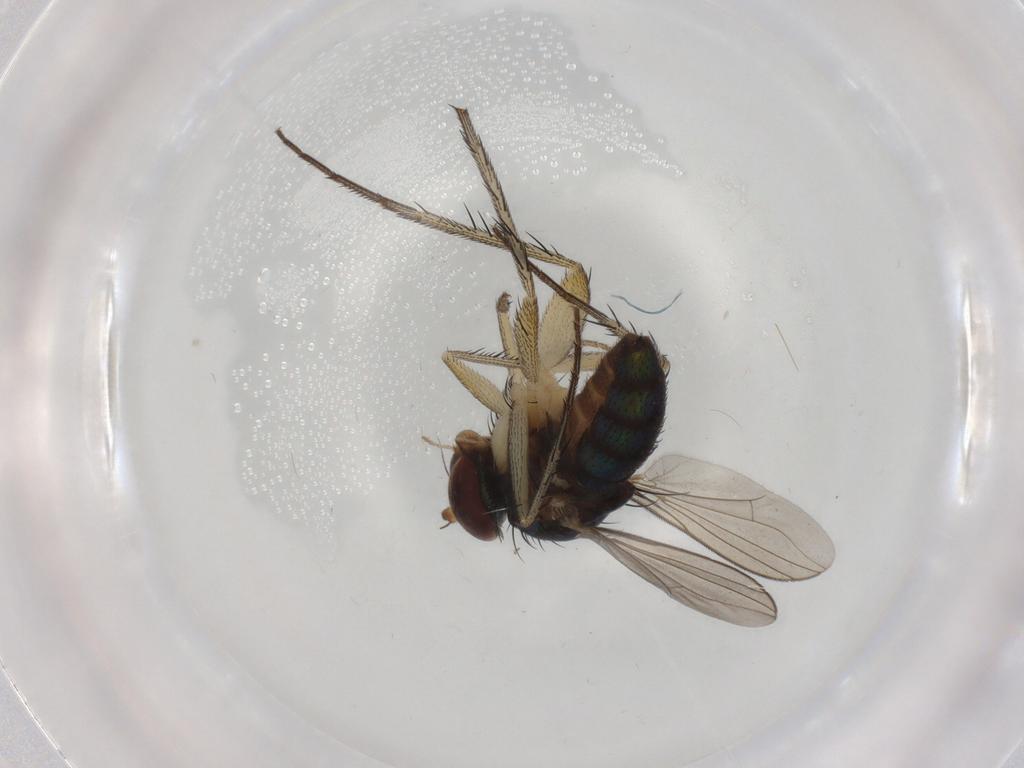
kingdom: Animalia
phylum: Arthropoda
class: Insecta
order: Diptera
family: Dolichopodidae
